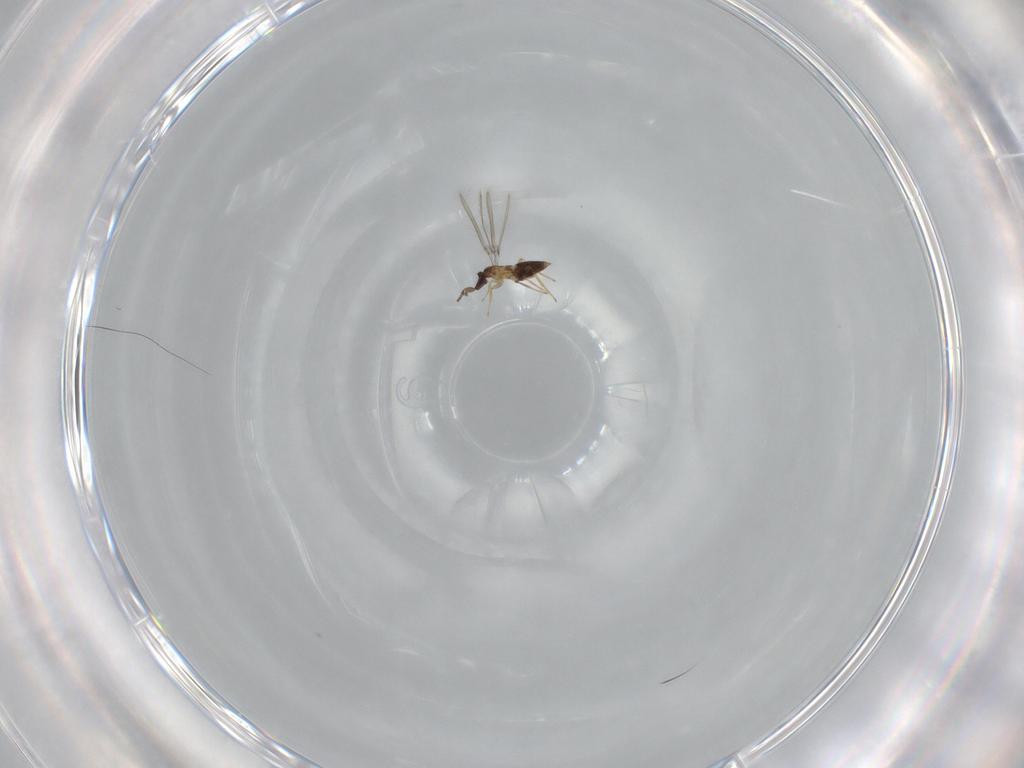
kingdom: Animalia
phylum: Arthropoda
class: Insecta
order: Hymenoptera
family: Mymaridae
